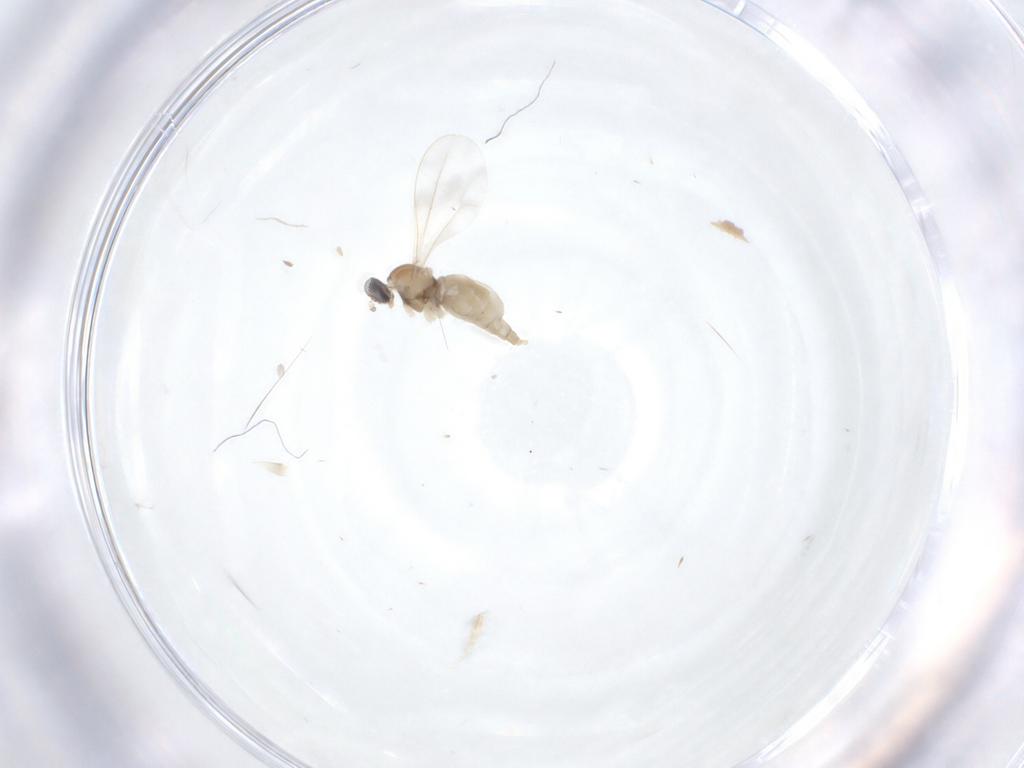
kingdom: Animalia
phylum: Arthropoda
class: Insecta
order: Diptera
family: Cecidomyiidae
